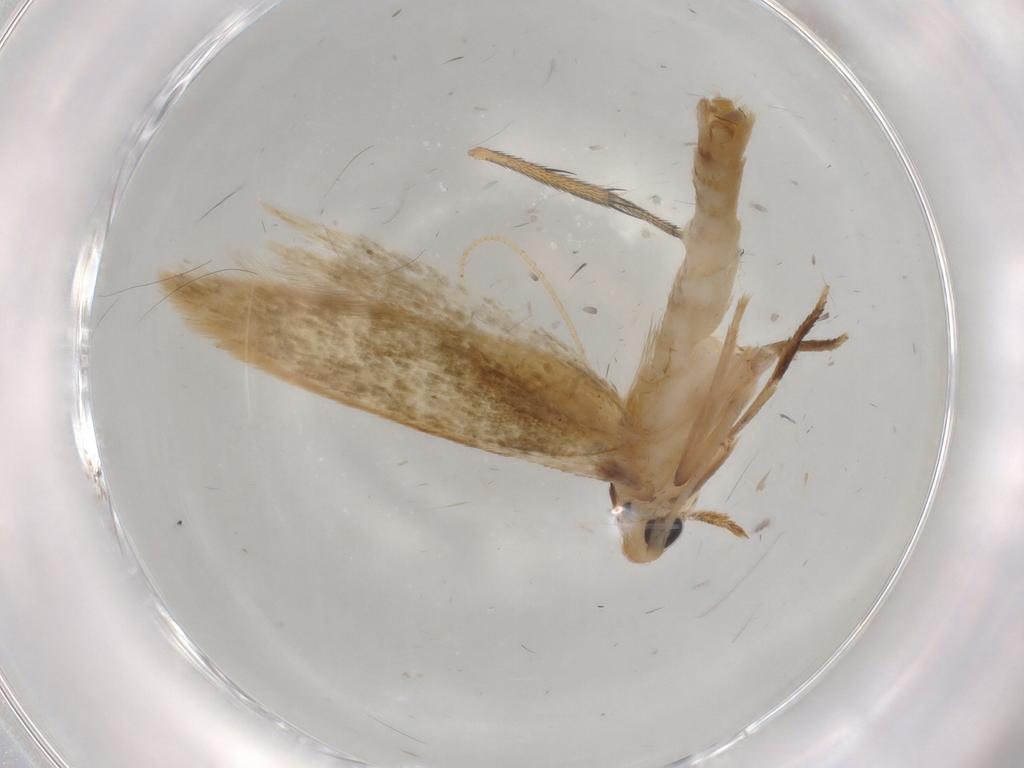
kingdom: Animalia
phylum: Arthropoda
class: Insecta
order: Lepidoptera
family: Tineidae
